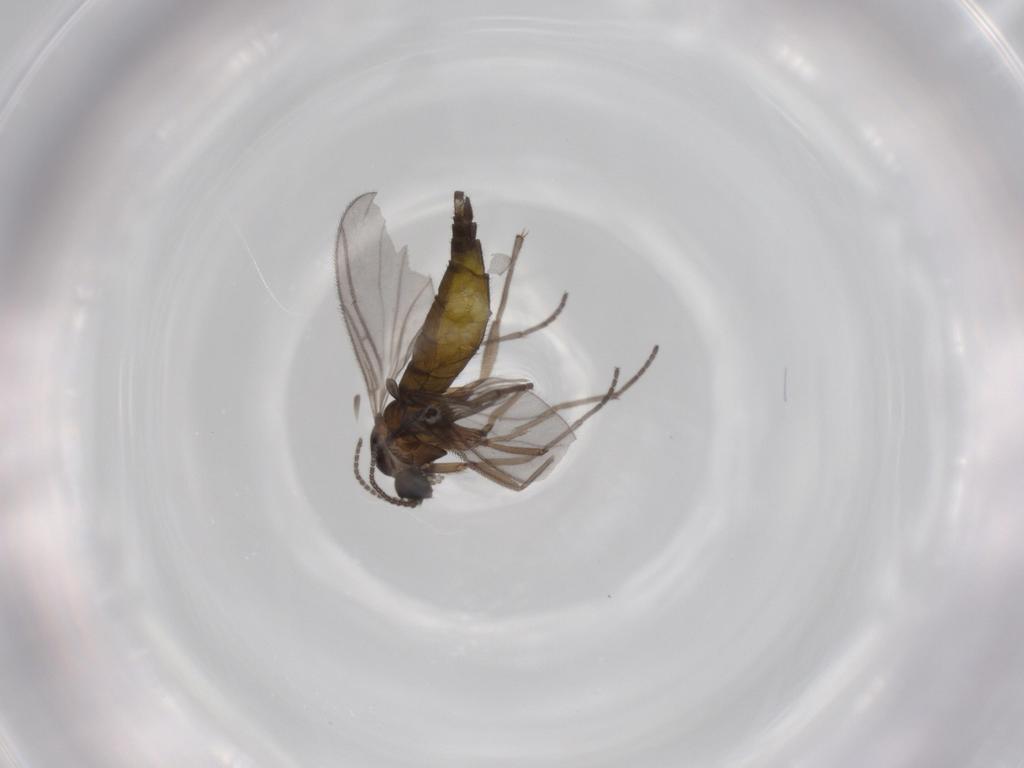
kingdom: Animalia
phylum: Arthropoda
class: Insecta
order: Diptera
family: Sciaridae
